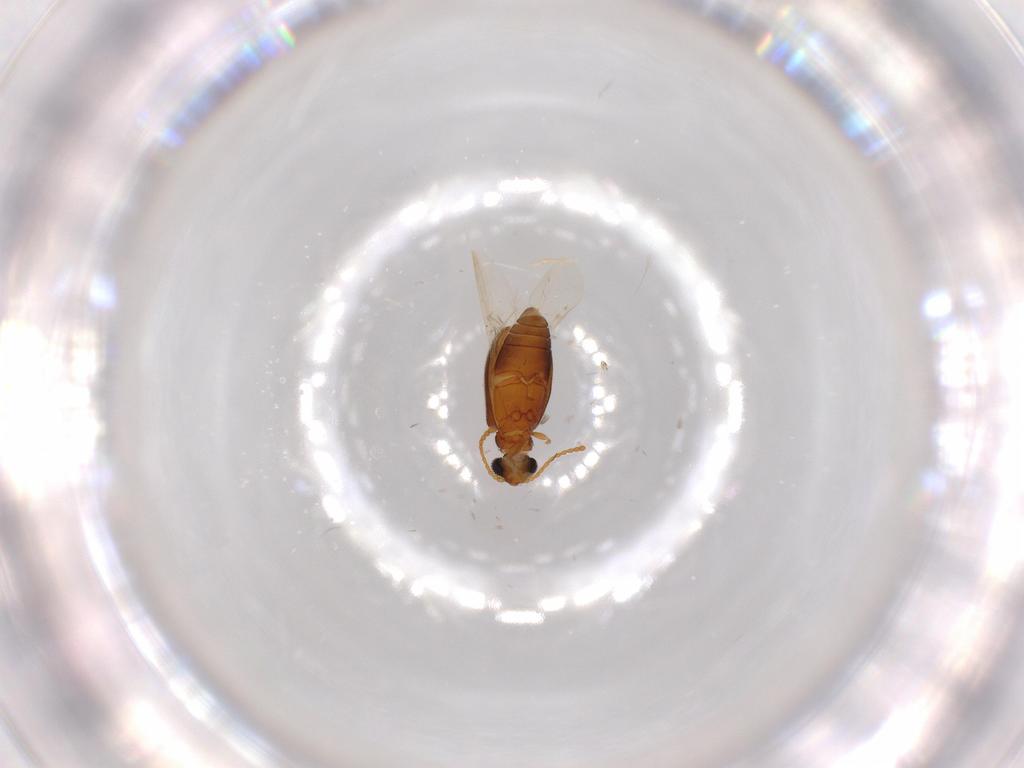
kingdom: Animalia
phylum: Arthropoda
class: Insecta
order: Coleoptera
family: Aderidae
